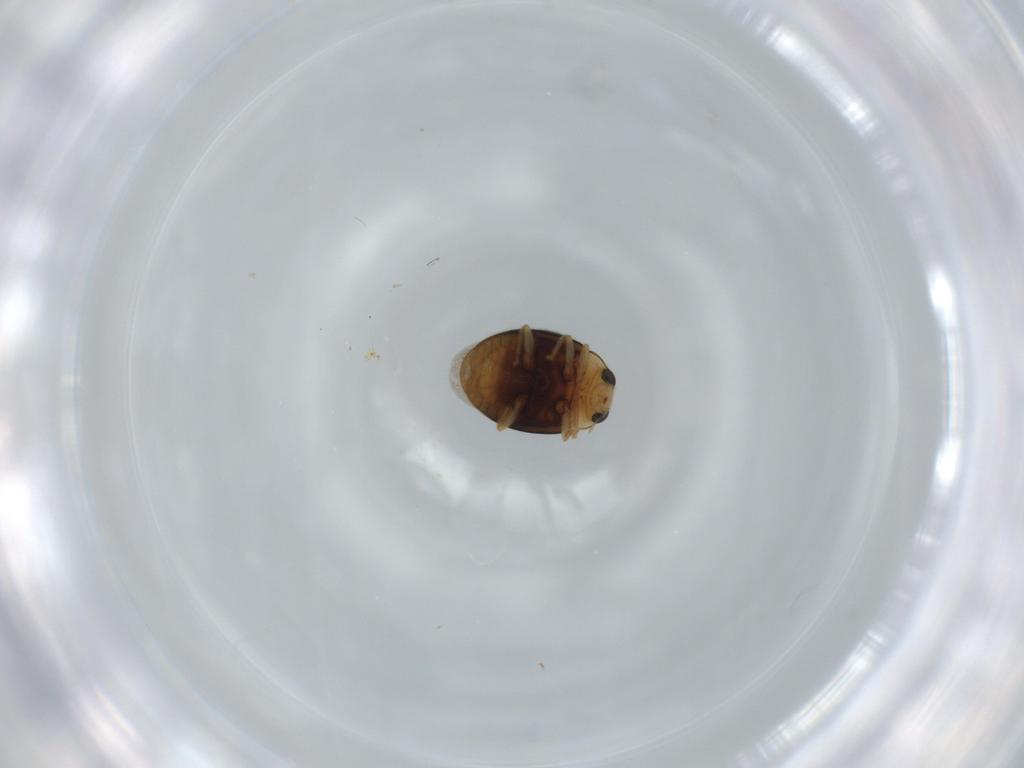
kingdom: Animalia
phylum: Arthropoda
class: Insecta
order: Coleoptera
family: Coccinellidae
